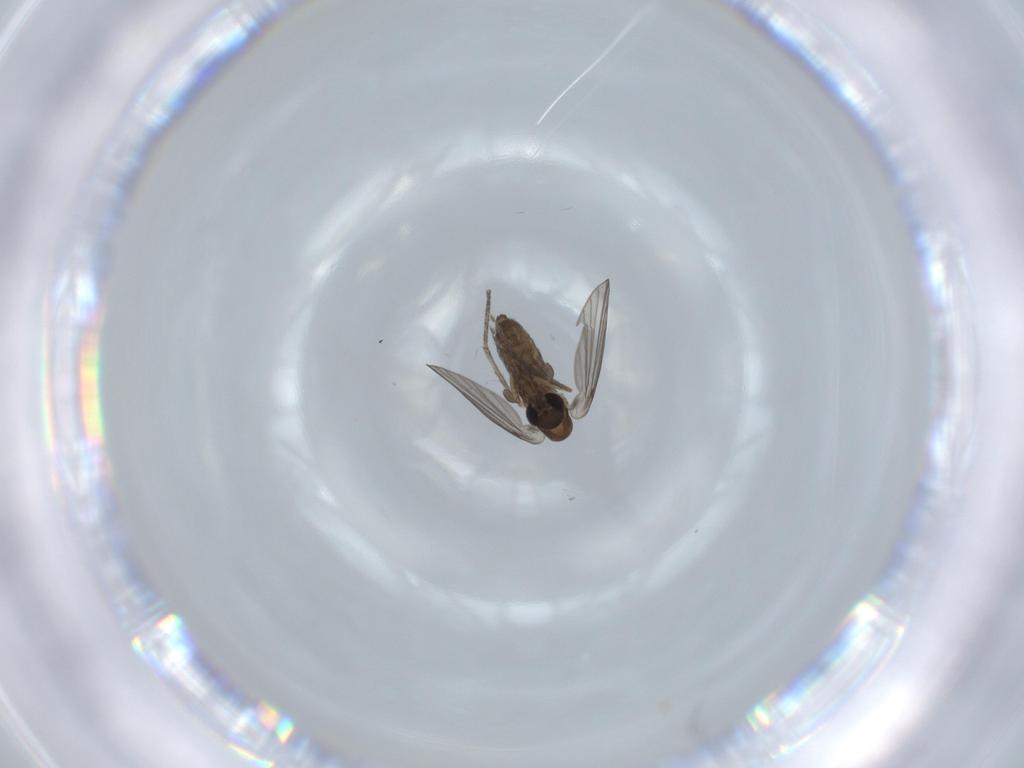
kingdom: Animalia
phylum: Arthropoda
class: Insecta
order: Diptera
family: Psychodidae
